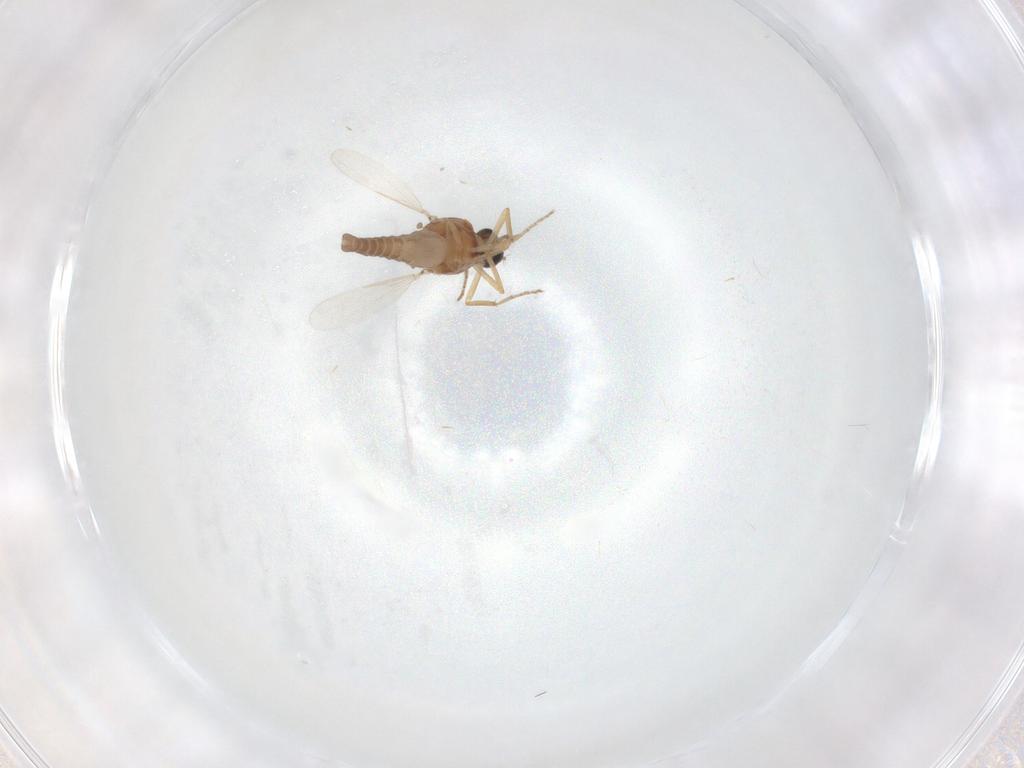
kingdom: Animalia
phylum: Arthropoda
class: Insecta
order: Diptera
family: Ceratopogonidae
